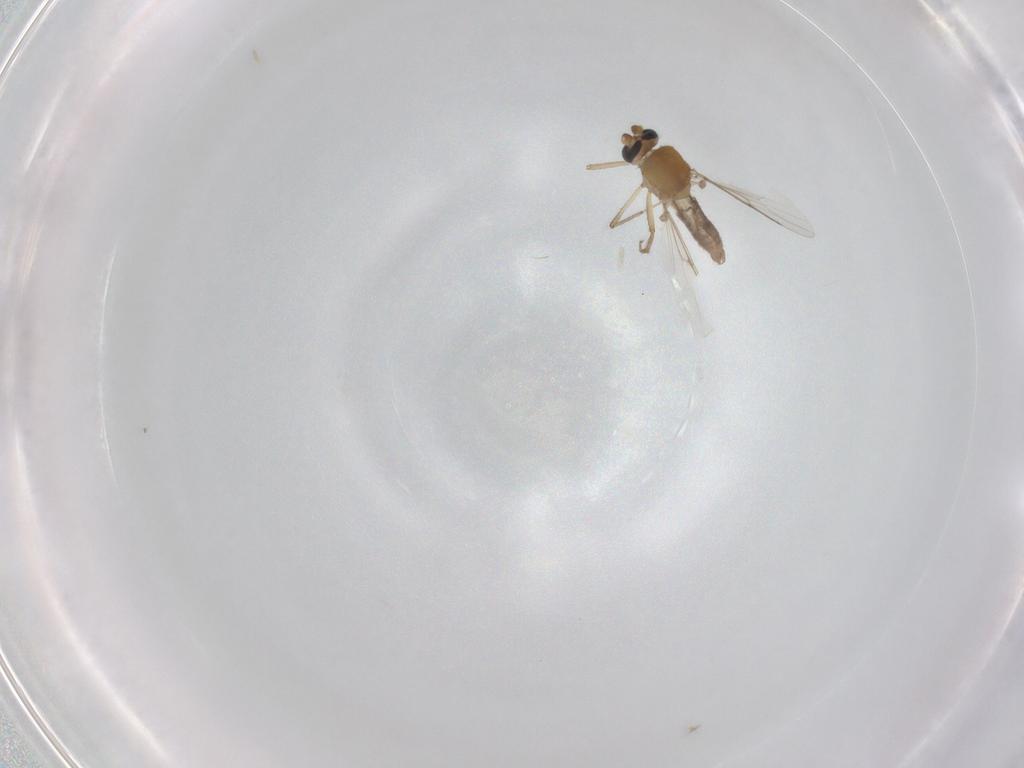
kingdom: Animalia
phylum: Arthropoda
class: Insecta
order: Diptera
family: Ceratopogonidae
